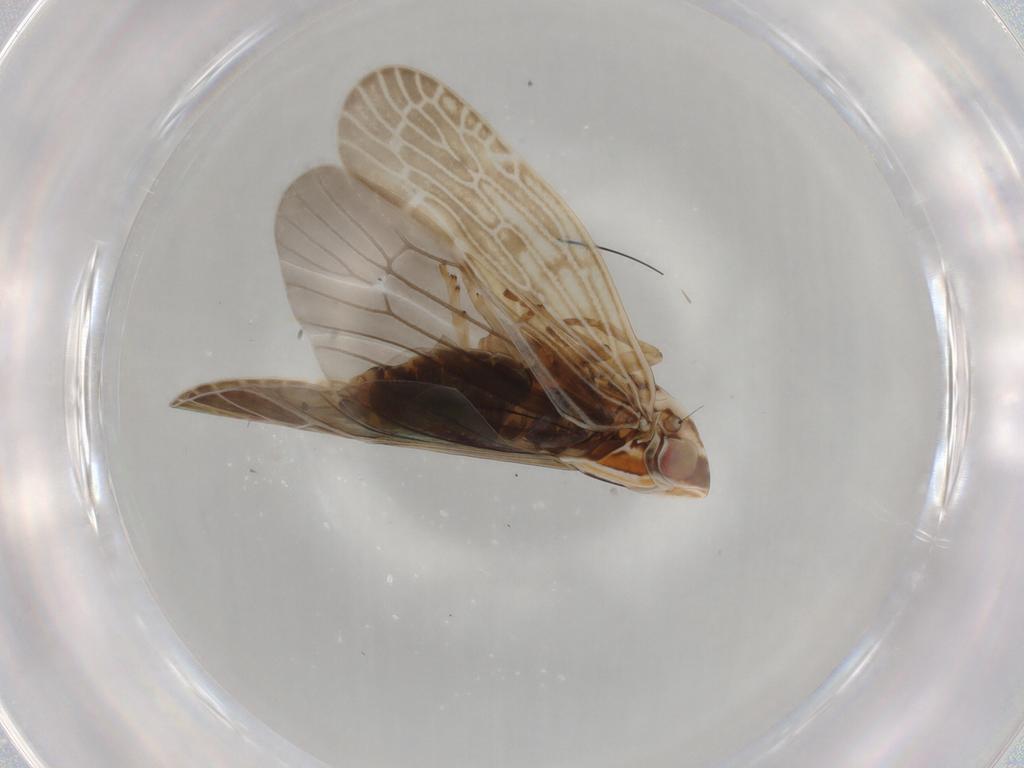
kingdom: Animalia
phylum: Arthropoda
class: Insecta
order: Hemiptera
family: Achilidae
